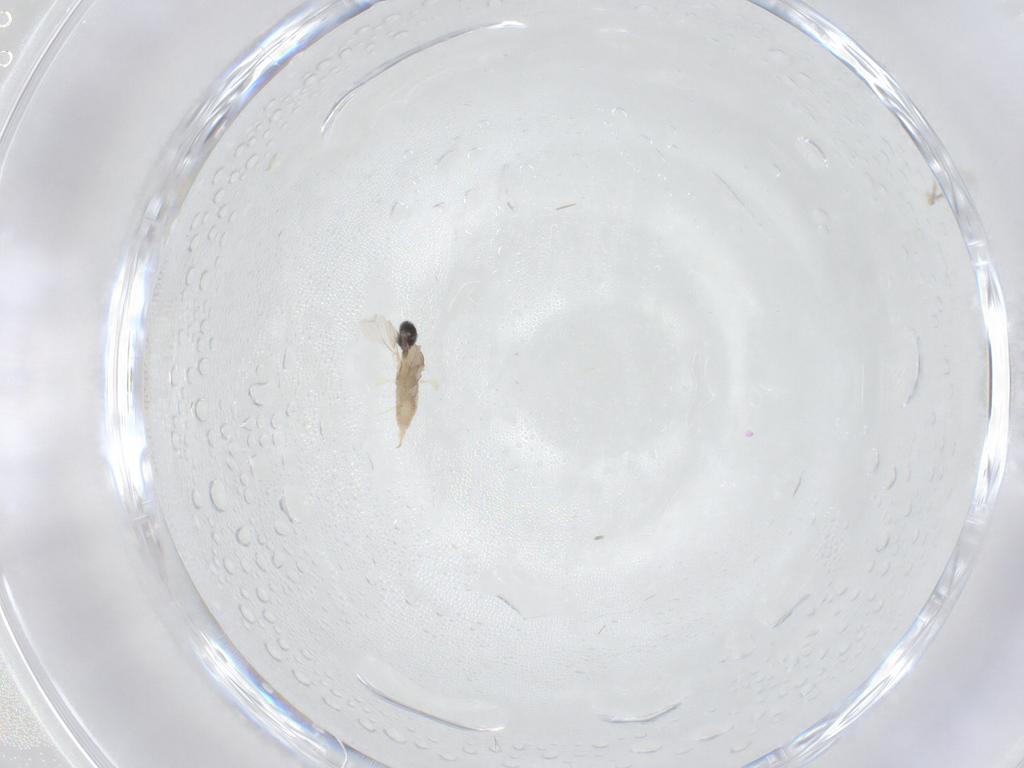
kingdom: Animalia
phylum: Arthropoda
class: Insecta
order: Diptera
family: Cecidomyiidae
